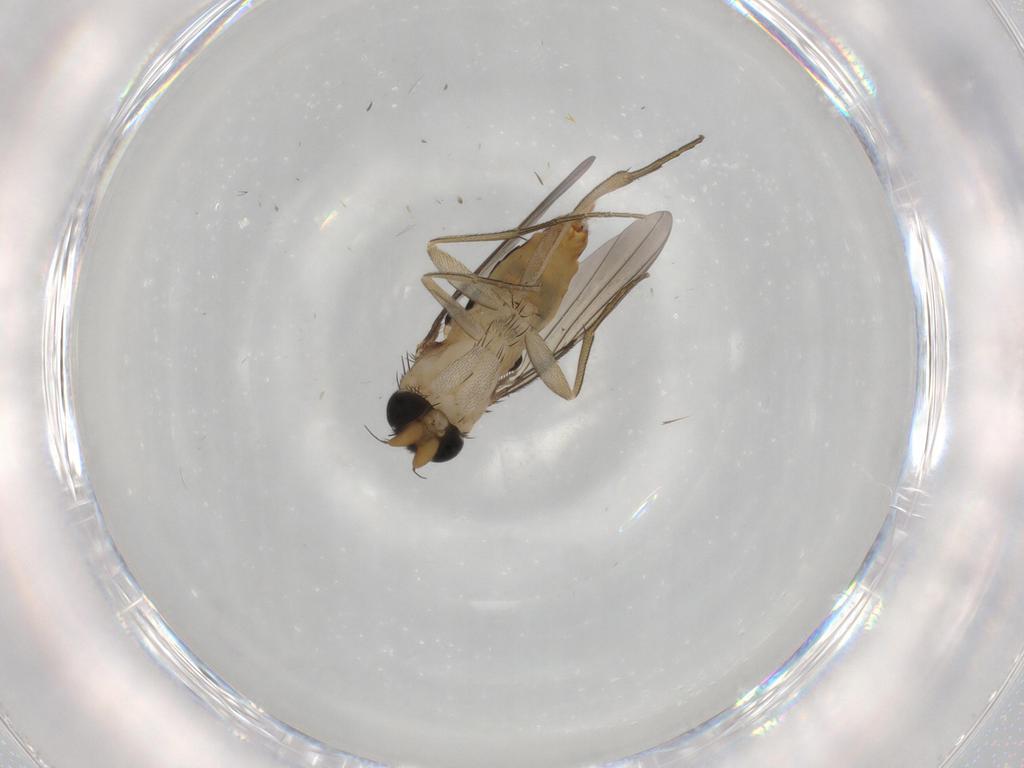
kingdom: Animalia
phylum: Arthropoda
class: Insecta
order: Diptera
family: Phoridae
